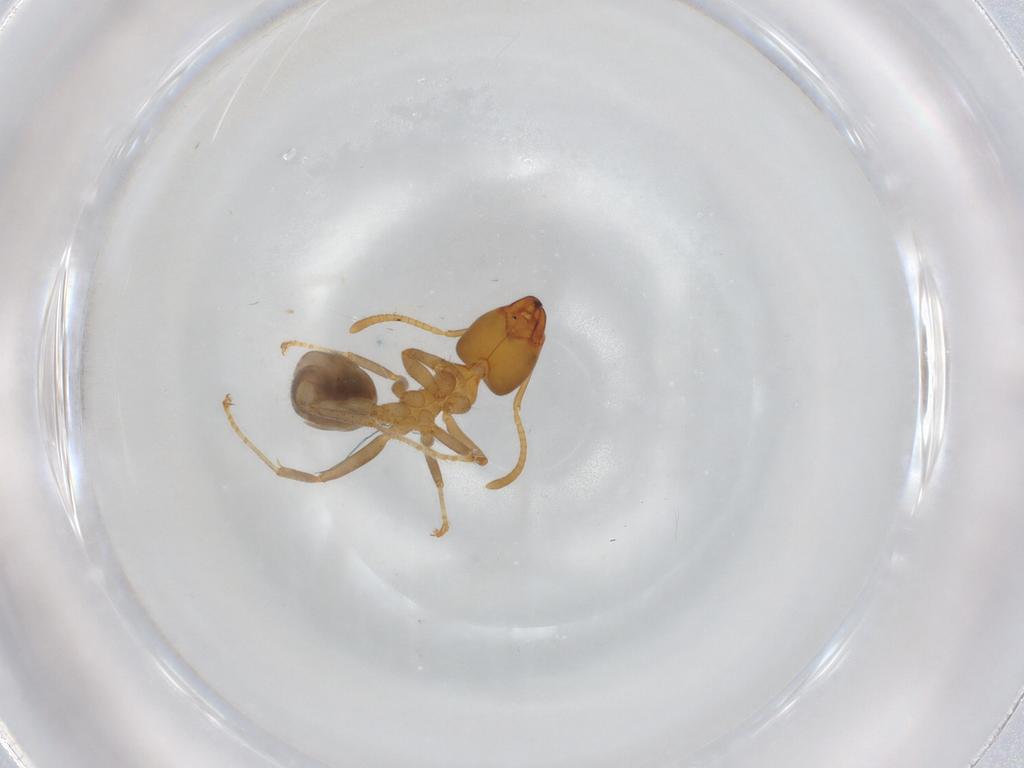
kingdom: Animalia
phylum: Arthropoda
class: Insecta
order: Hymenoptera
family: Formicidae
